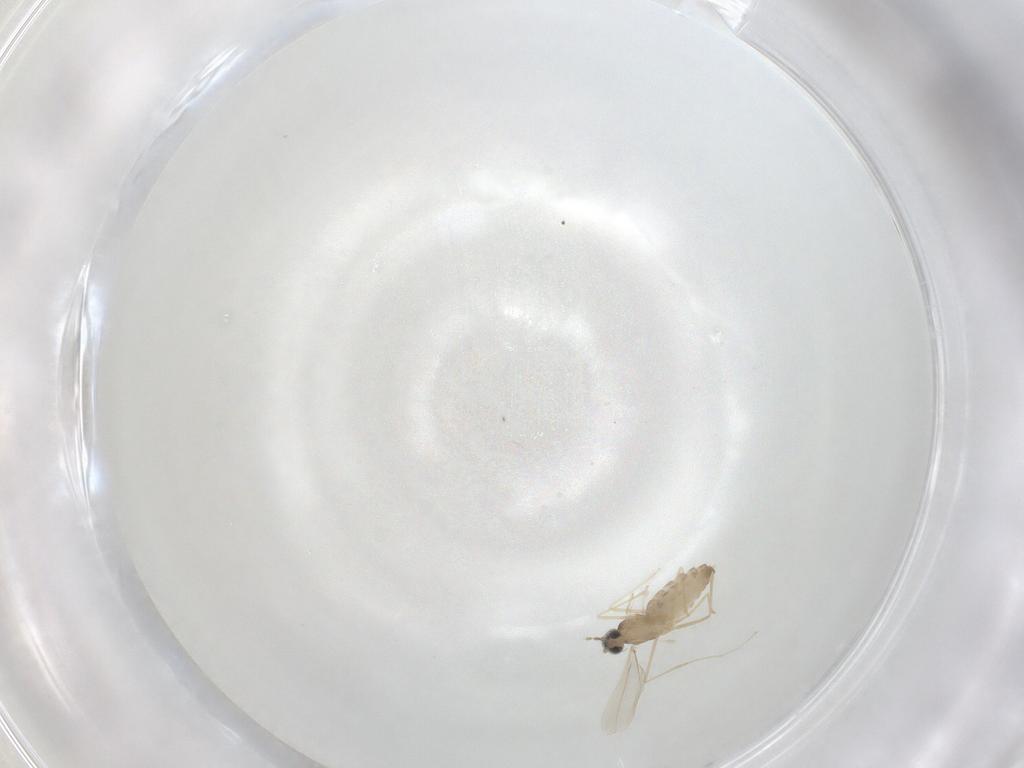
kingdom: Animalia
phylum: Arthropoda
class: Insecta
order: Diptera
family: Cecidomyiidae
